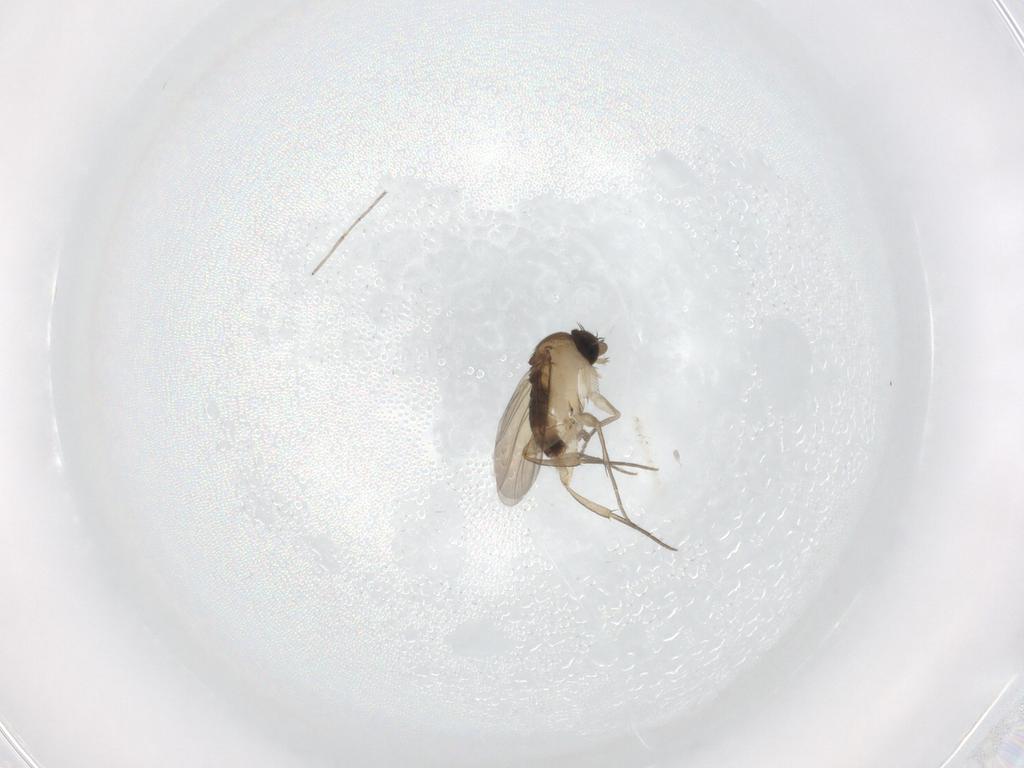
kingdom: Animalia
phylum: Arthropoda
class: Insecta
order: Diptera
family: Chironomidae
